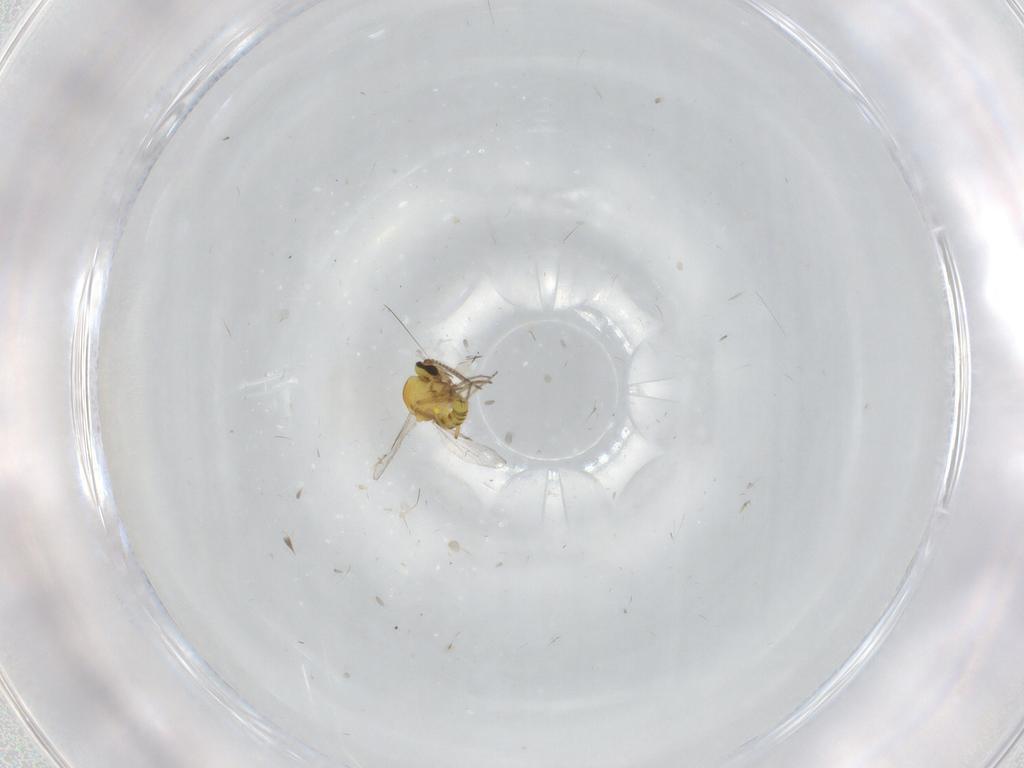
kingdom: Animalia
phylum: Arthropoda
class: Insecta
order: Diptera
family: Ceratopogonidae
